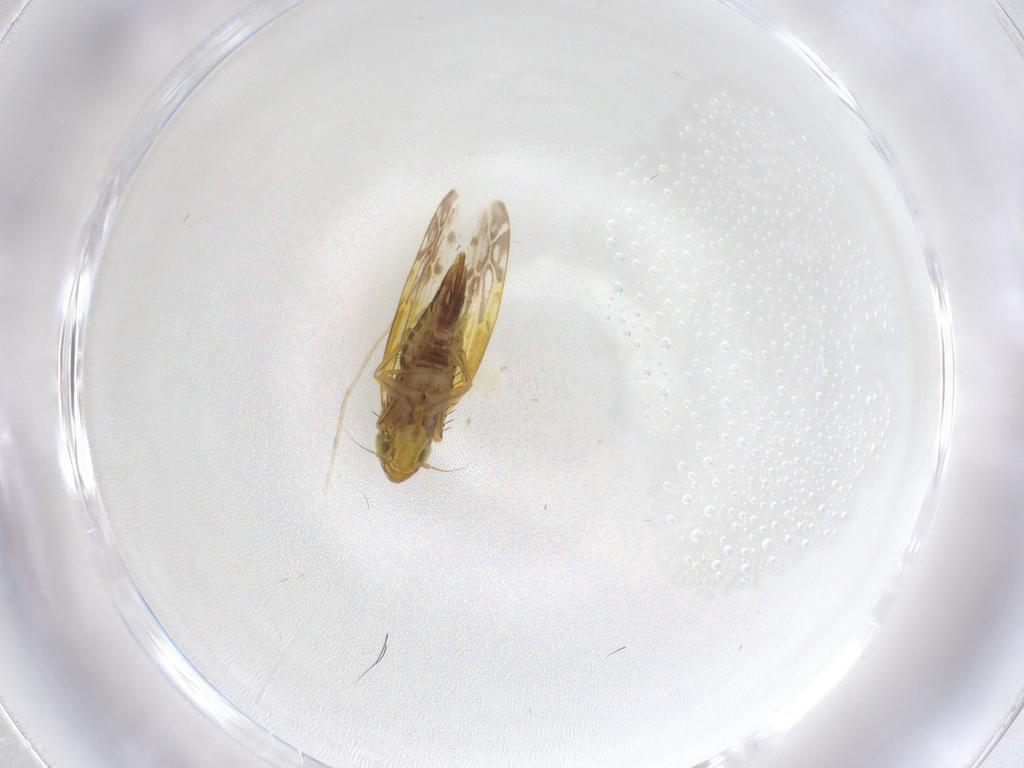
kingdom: Animalia
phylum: Arthropoda
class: Insecta
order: Hemiptera
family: Cicadellidae
